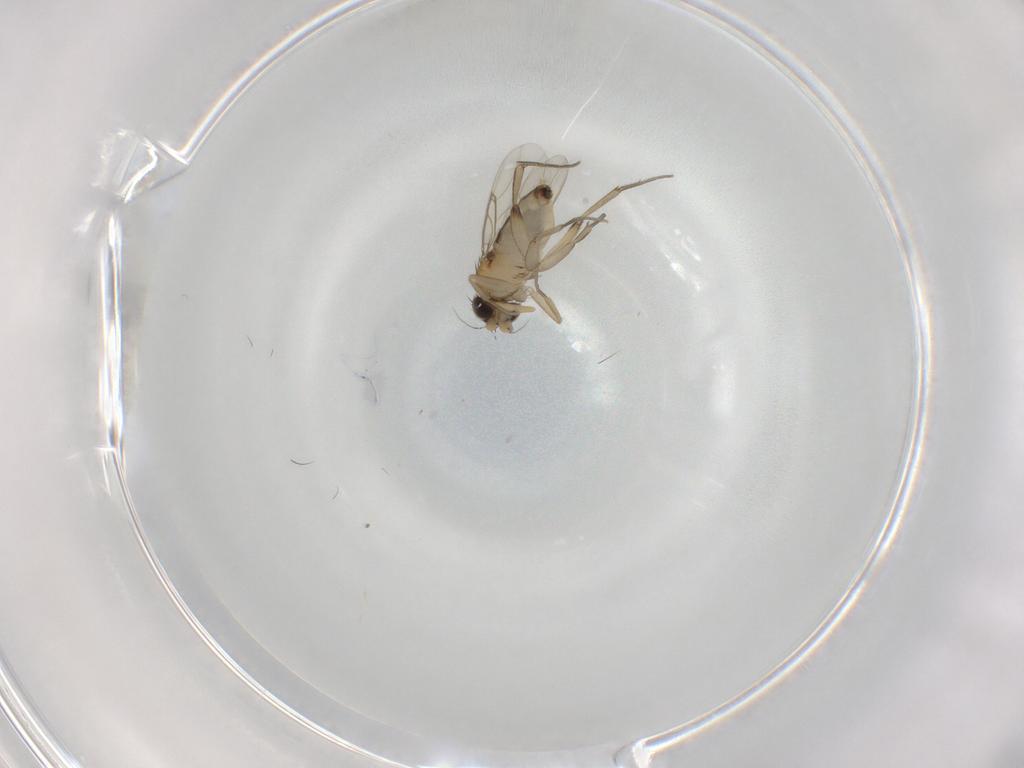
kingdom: Animalia
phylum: Arthropoda
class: Insecta
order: Diptera
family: Phoridae
